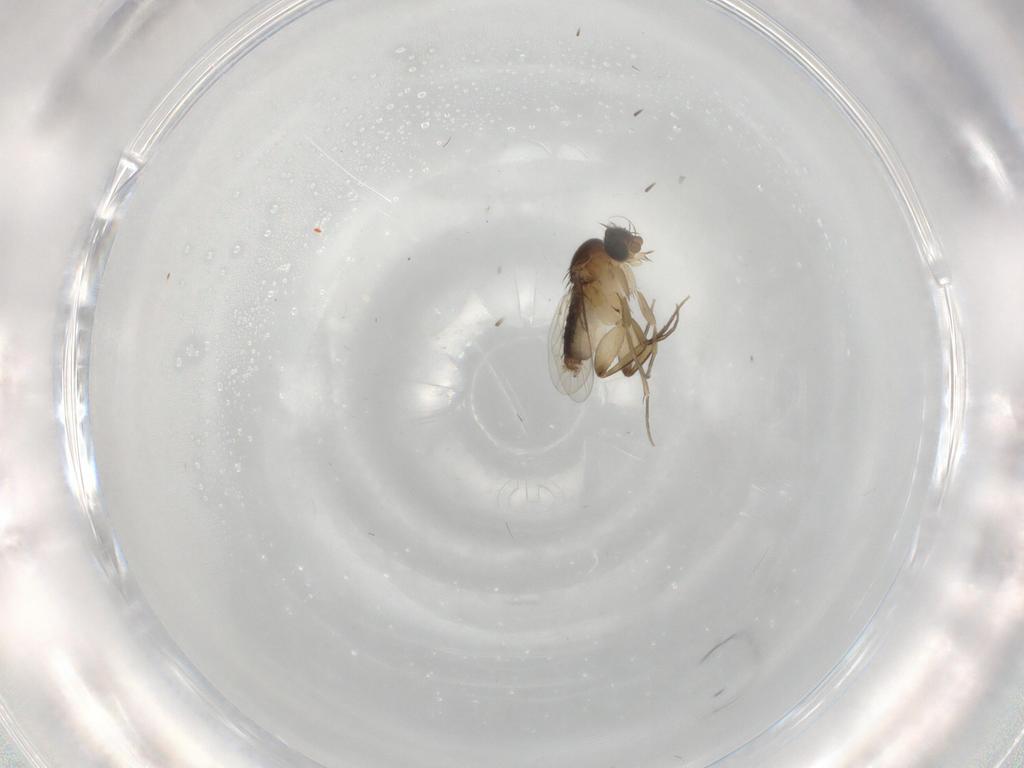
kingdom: Animalia
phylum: Arthropoda
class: Insecta
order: Diptera
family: Phoridae
